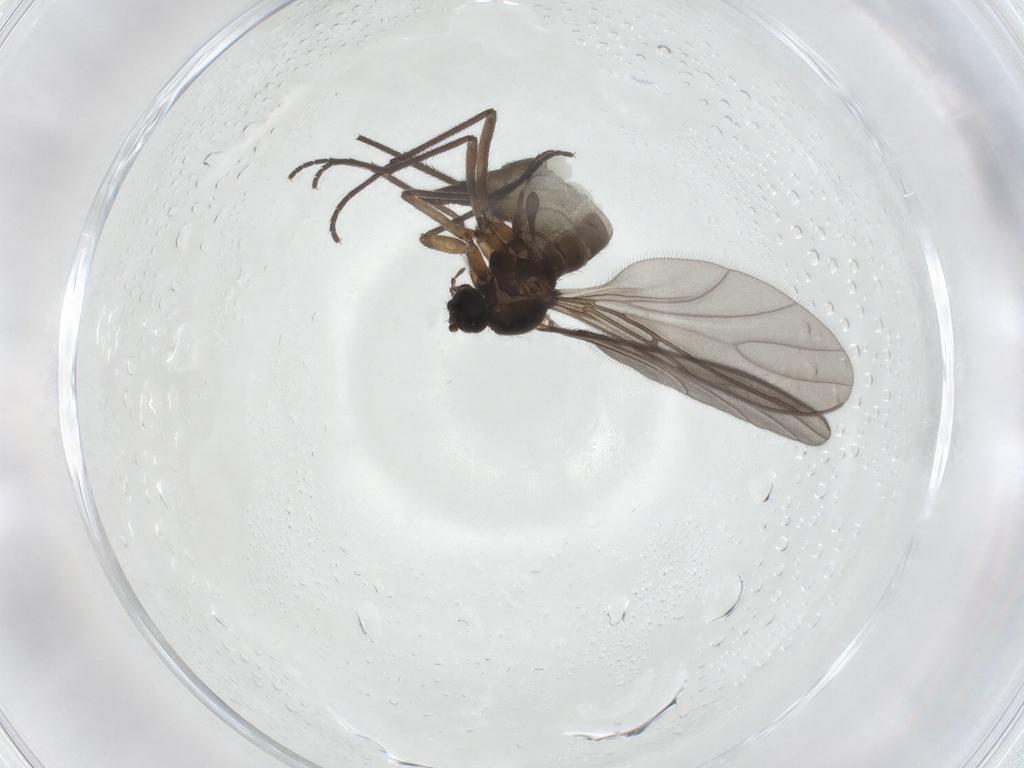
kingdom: Animalia
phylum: Arthropoda
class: Insecta
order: Diptera
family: Sciaridae
